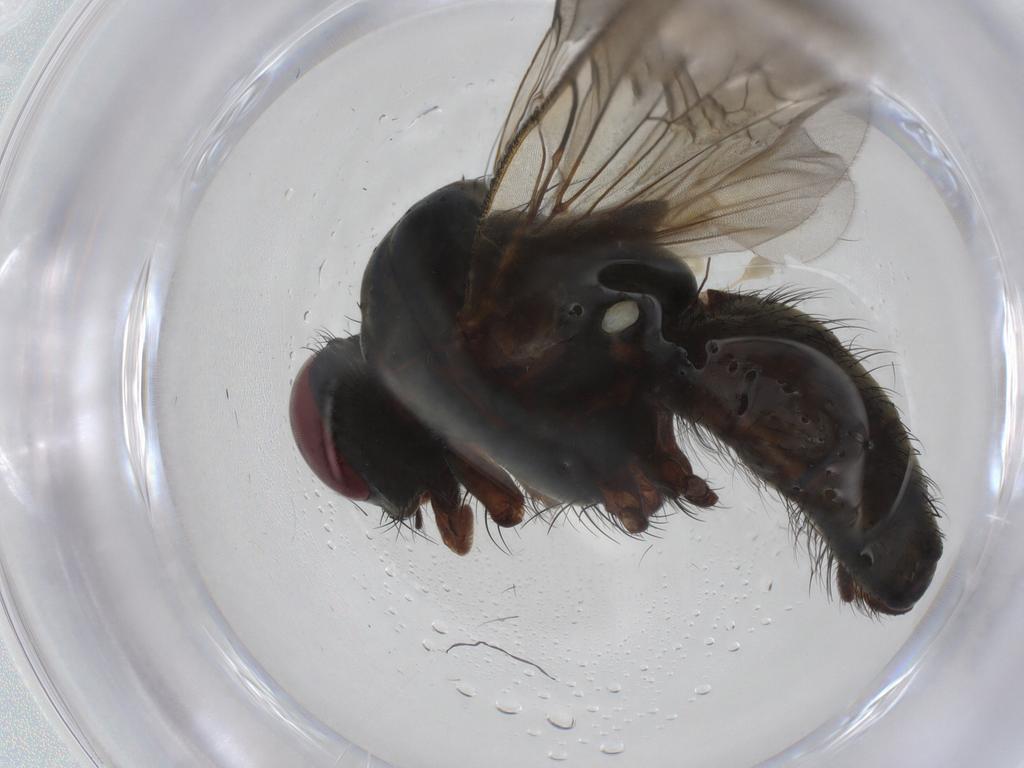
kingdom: Animalia
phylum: Arthropoda
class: Insecta
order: Diptera
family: Anthomyiidae
